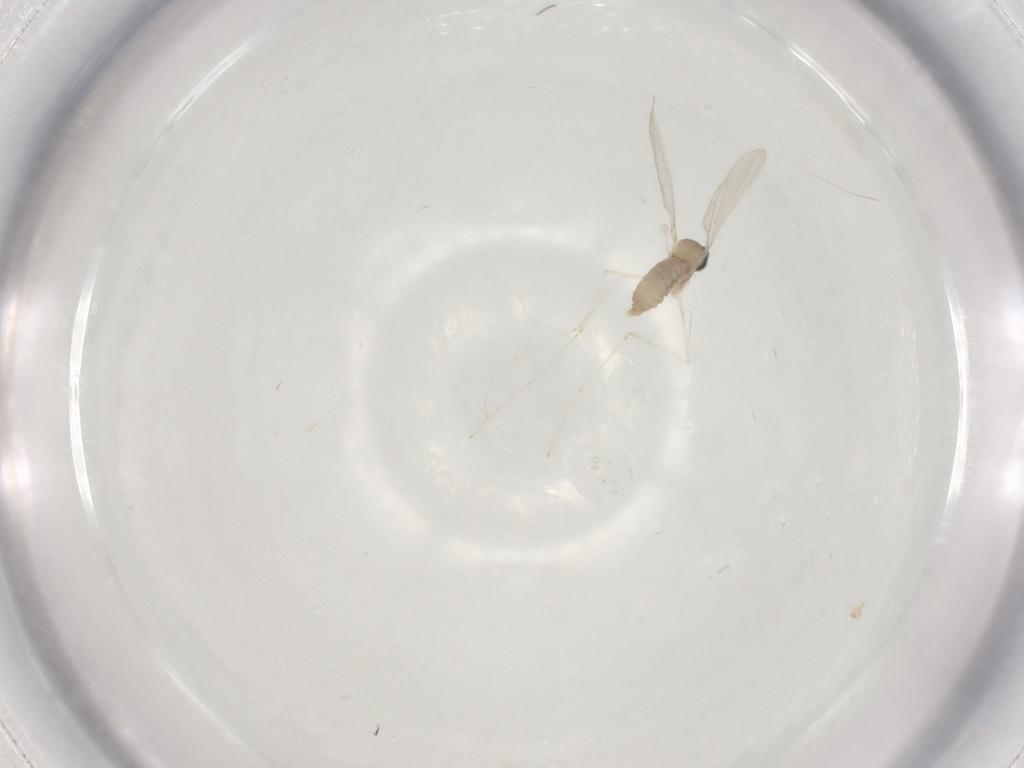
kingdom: Animalia
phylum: Arthropoda
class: Insecta
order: Diptera
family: Cecidomyiidae
